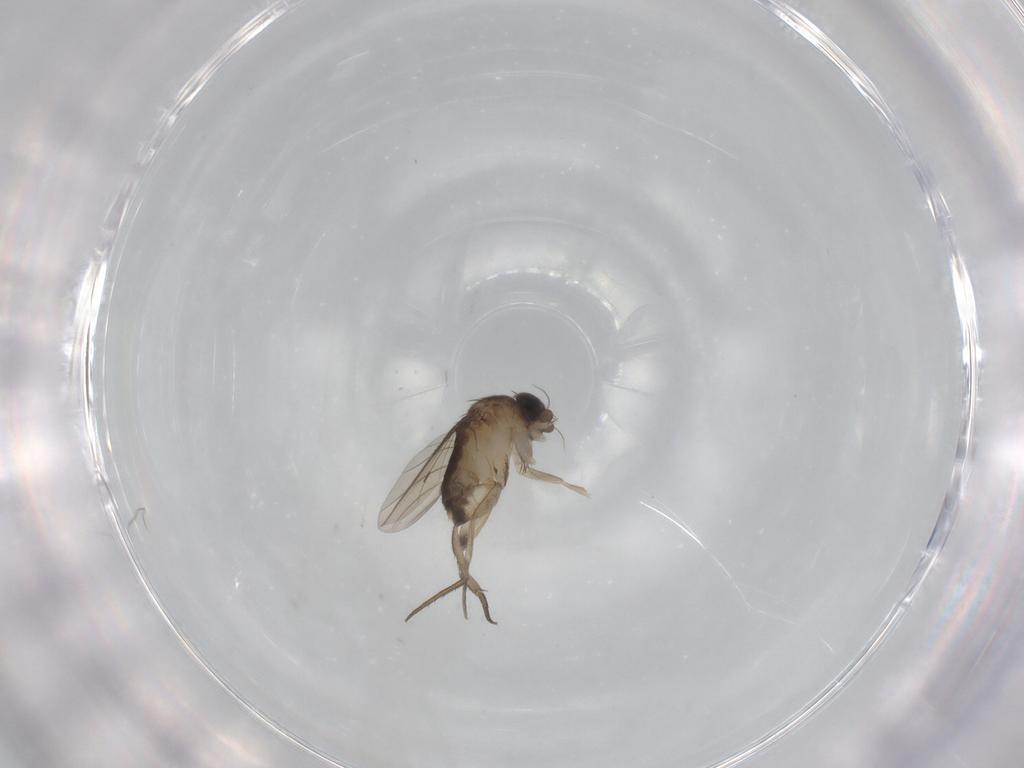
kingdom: Animalia
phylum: Arthropoda
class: Insecta
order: Diptera
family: Phoridae
